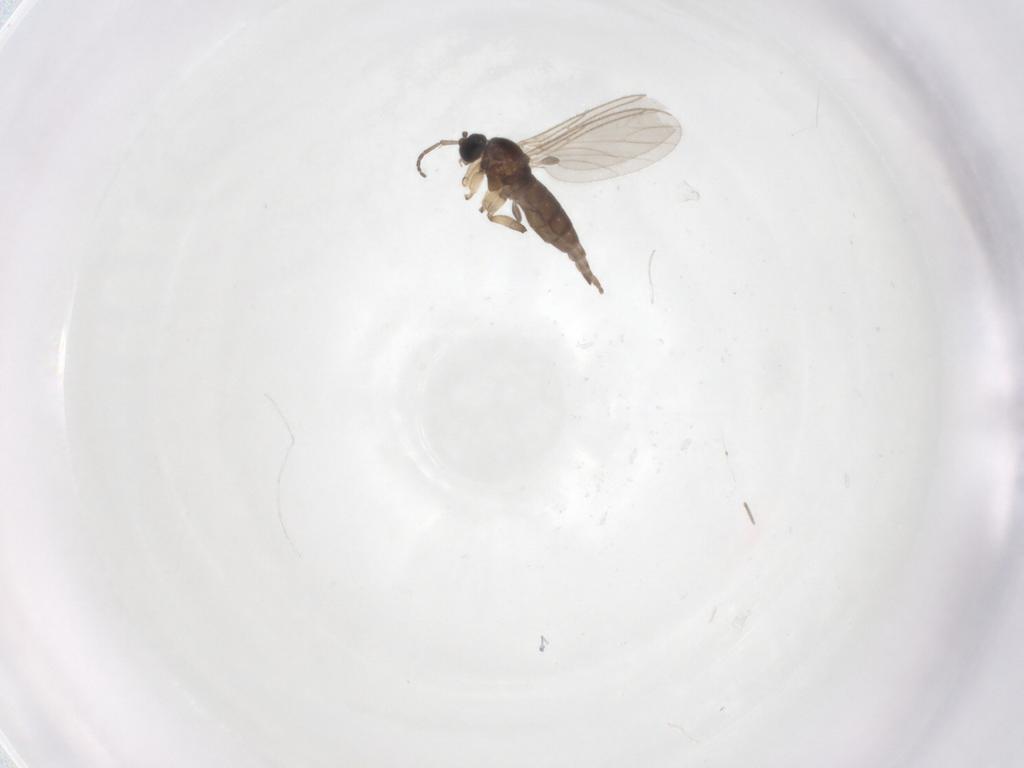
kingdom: Animalia
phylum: Arthropoda
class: Insecta
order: Diptera
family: Sciaridae
